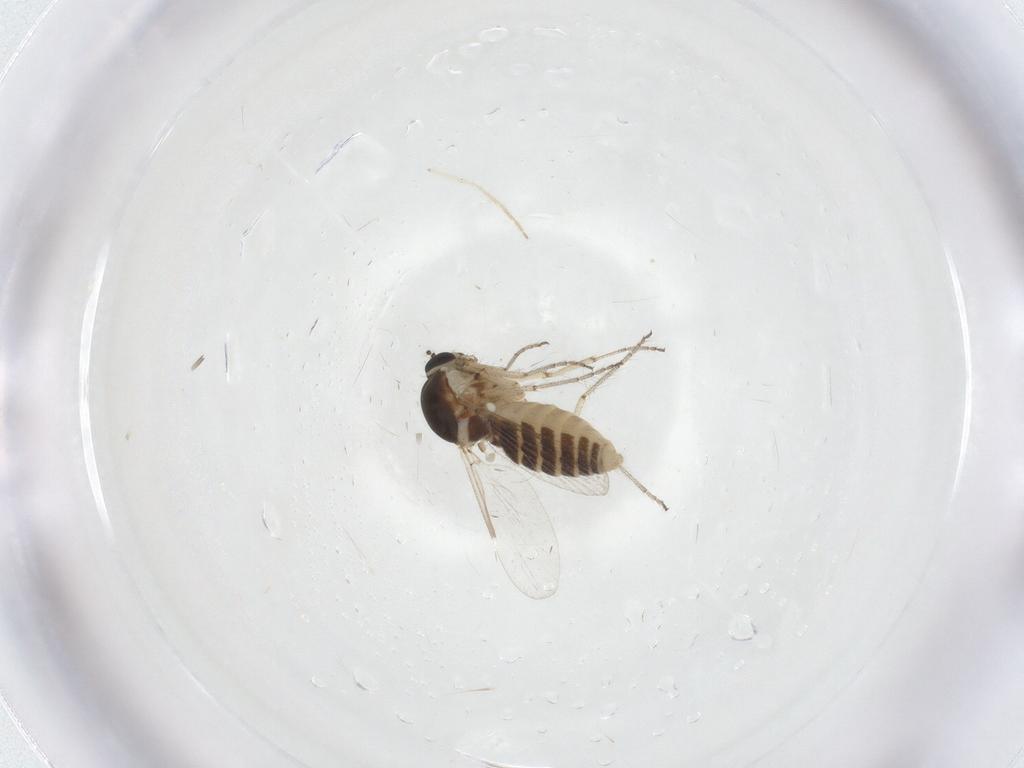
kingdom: Animalia
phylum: Arthropoda
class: Insecta
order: Diptera
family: Ceratopogonidae
